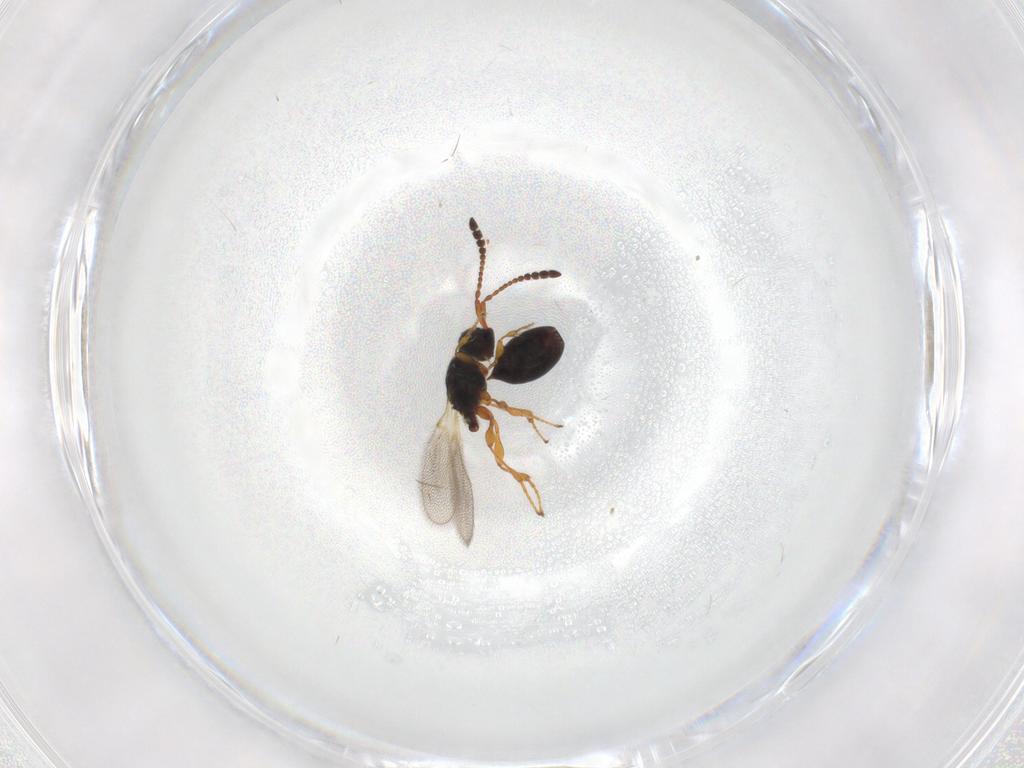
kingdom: Animalia
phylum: Arthropoda
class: Insecta
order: Hymenoptera
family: Diapriidae
